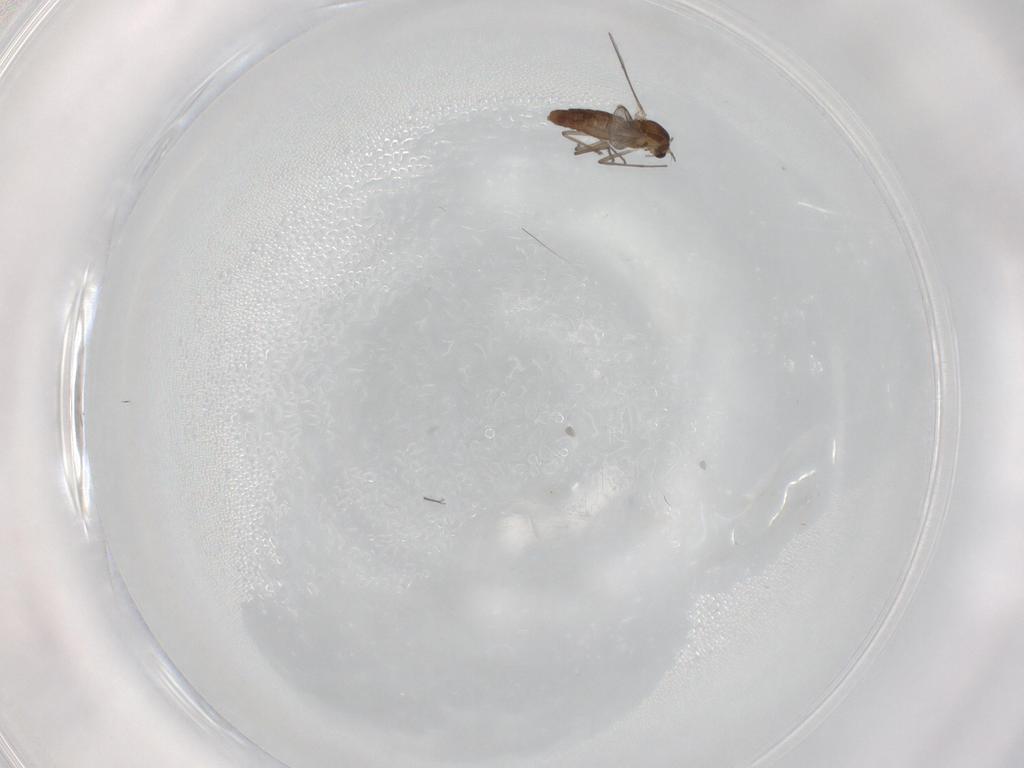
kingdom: Animalia
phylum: Arthropoda
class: Insecta
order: Diptera
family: Chironomidae
